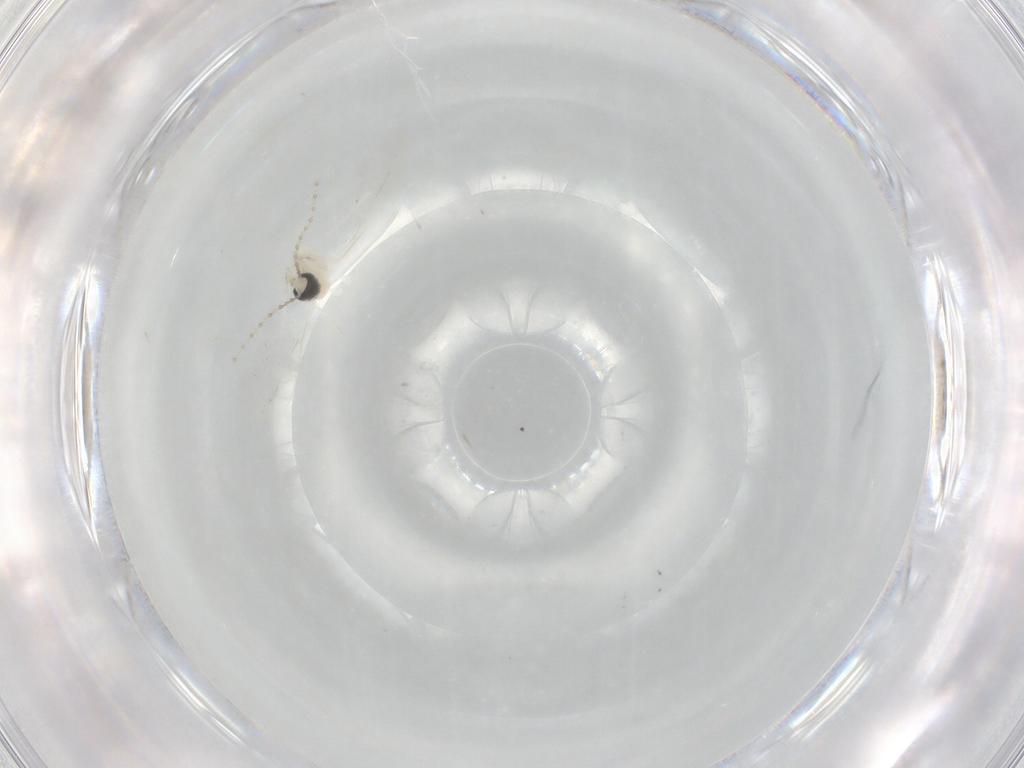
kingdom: Animalia
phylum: Arthropoda
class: Insecta
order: Diptera
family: Cecidomyiidae
